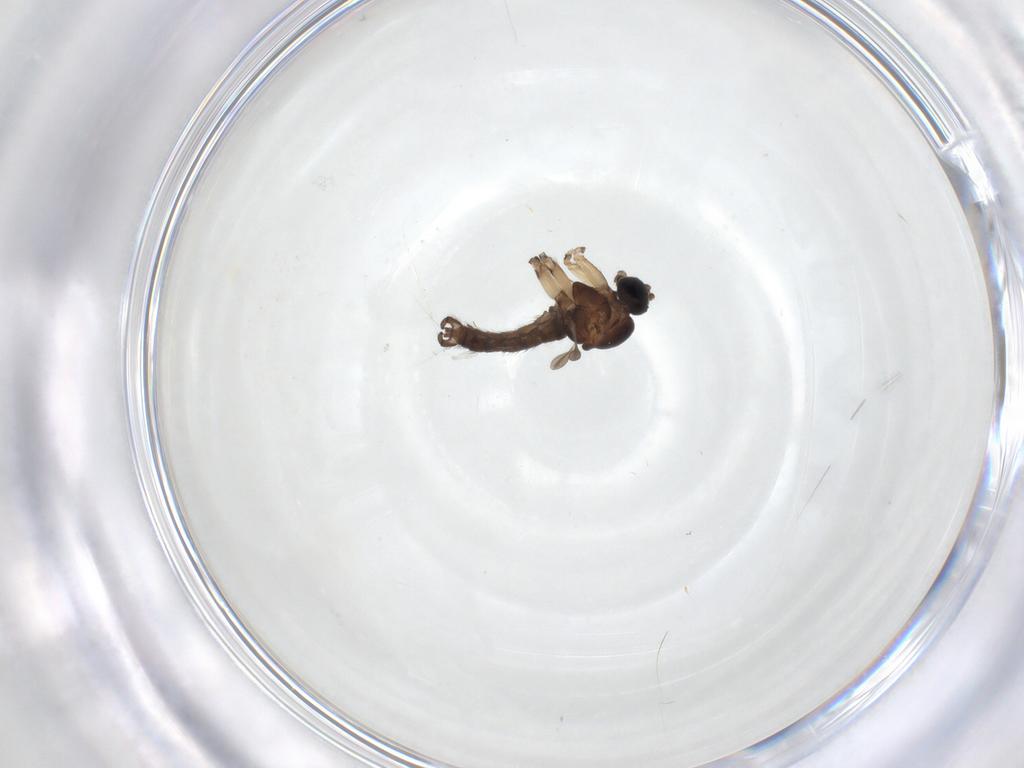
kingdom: Animalia
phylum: Arthropoda
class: Insecta
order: Diptera
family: Sciaridae
